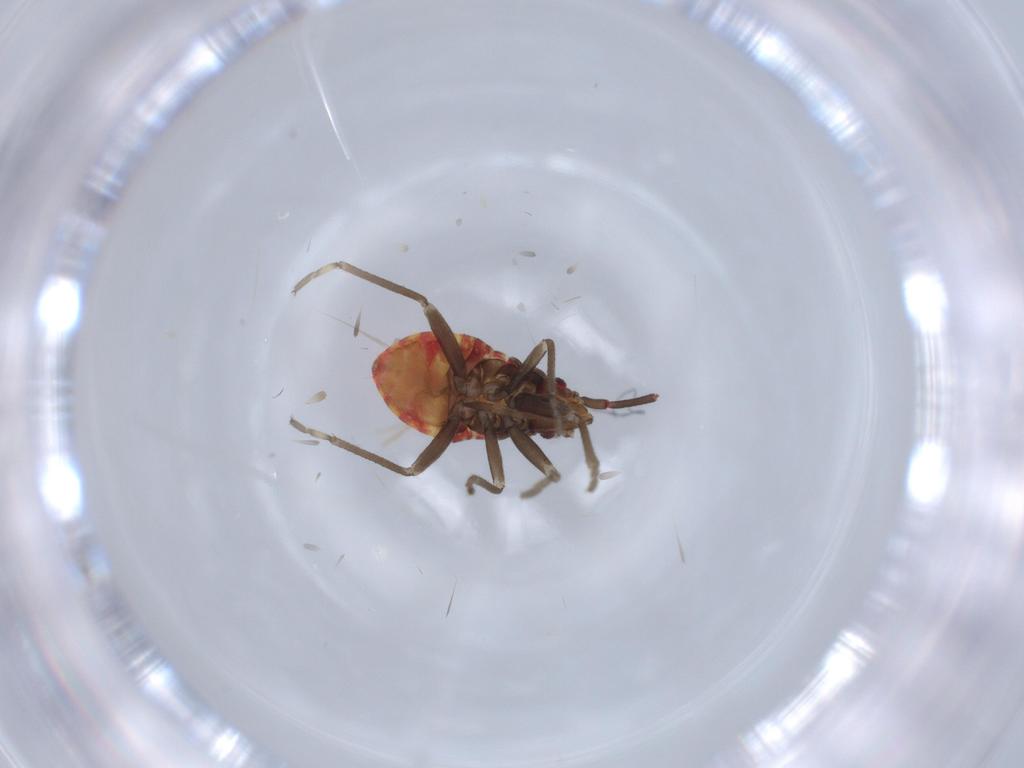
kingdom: Animalia
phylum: Arthropoda
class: Insecta
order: Hemiptera
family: Rhyparochromidae
